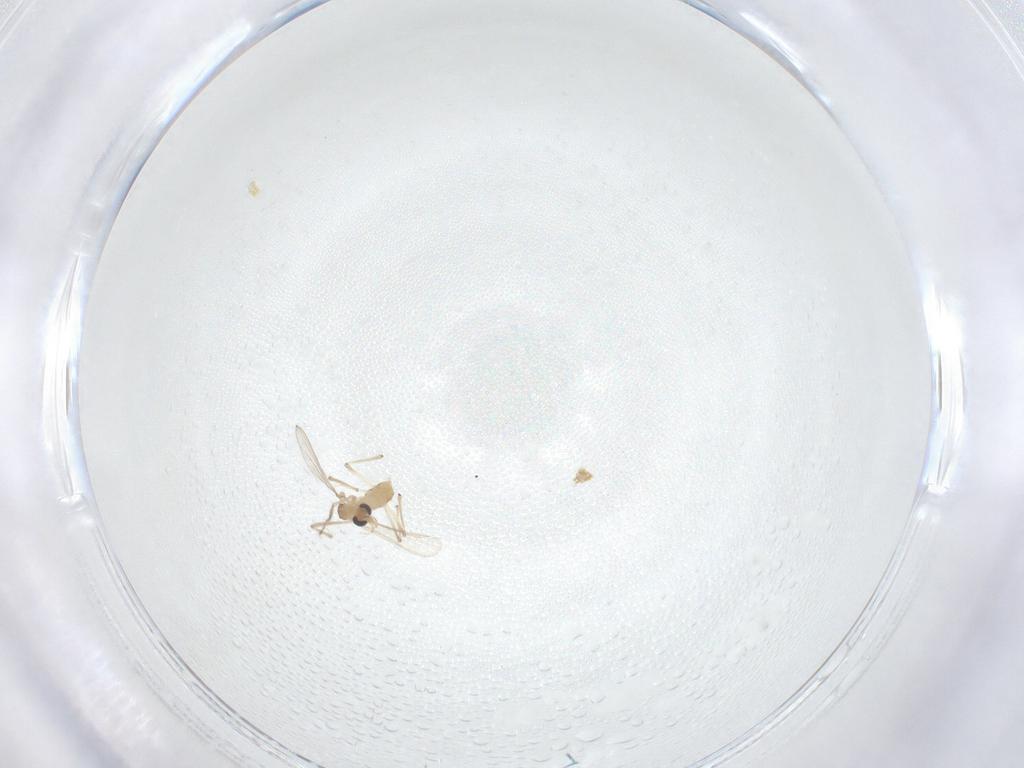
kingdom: Animalia
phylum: Arthropoda
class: Insecta
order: Diptera
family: Chironomidae
